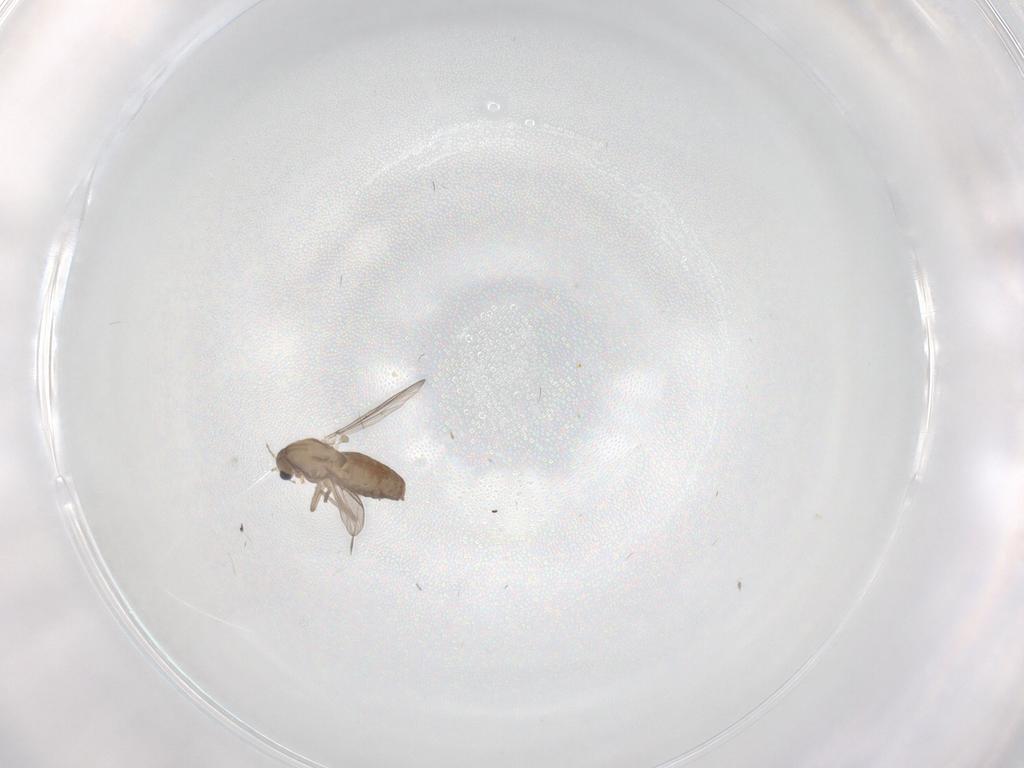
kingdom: Animalia
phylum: Arthropoda
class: Insecta
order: Diptera
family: Chironomidae
